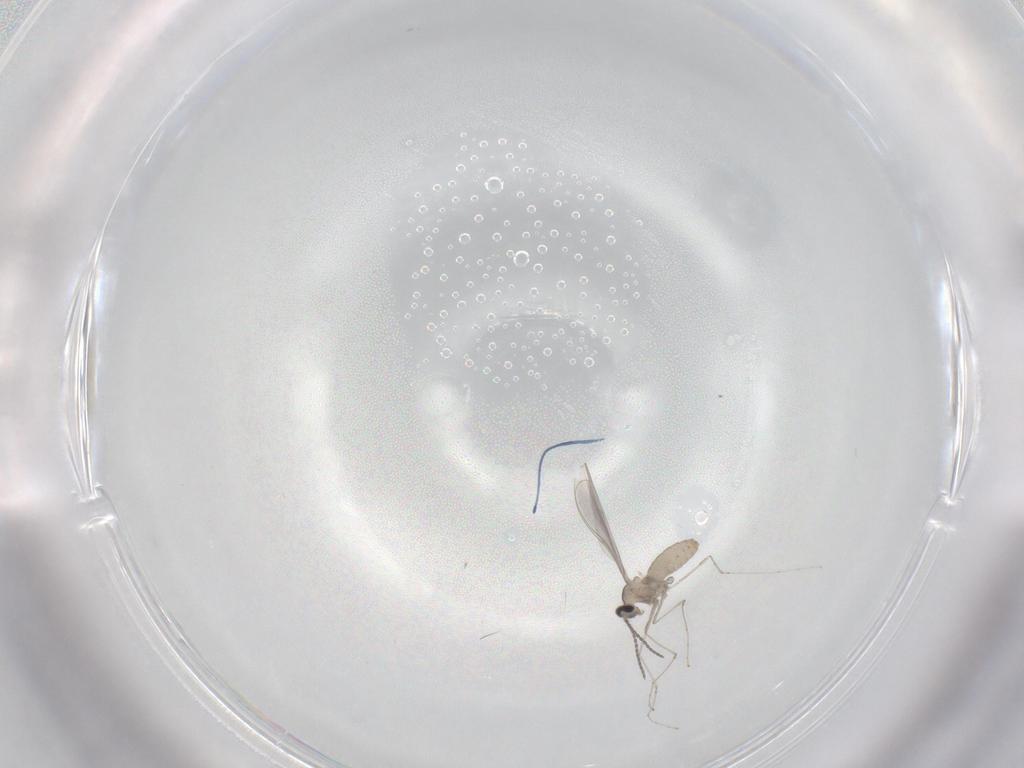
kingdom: Animalia
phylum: Arthropoda
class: Insecta
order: Diptera
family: Cecidomyiidae
